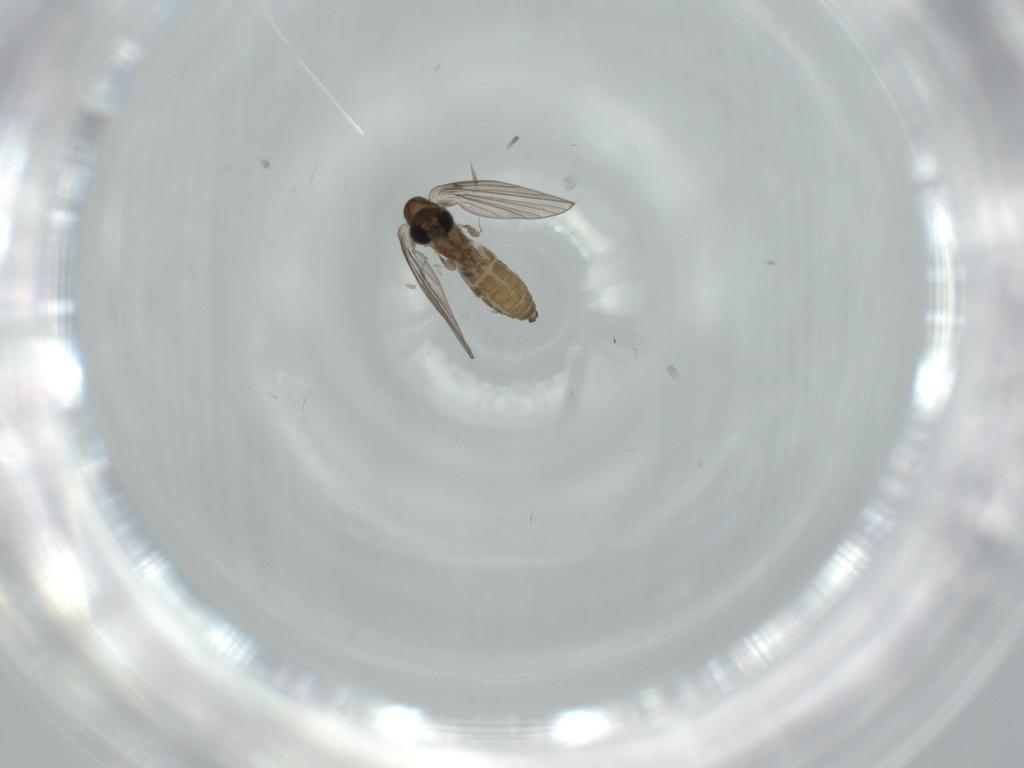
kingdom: Animalia
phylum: Arthropoda
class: Insecta
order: Diptera
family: Psychodidae
